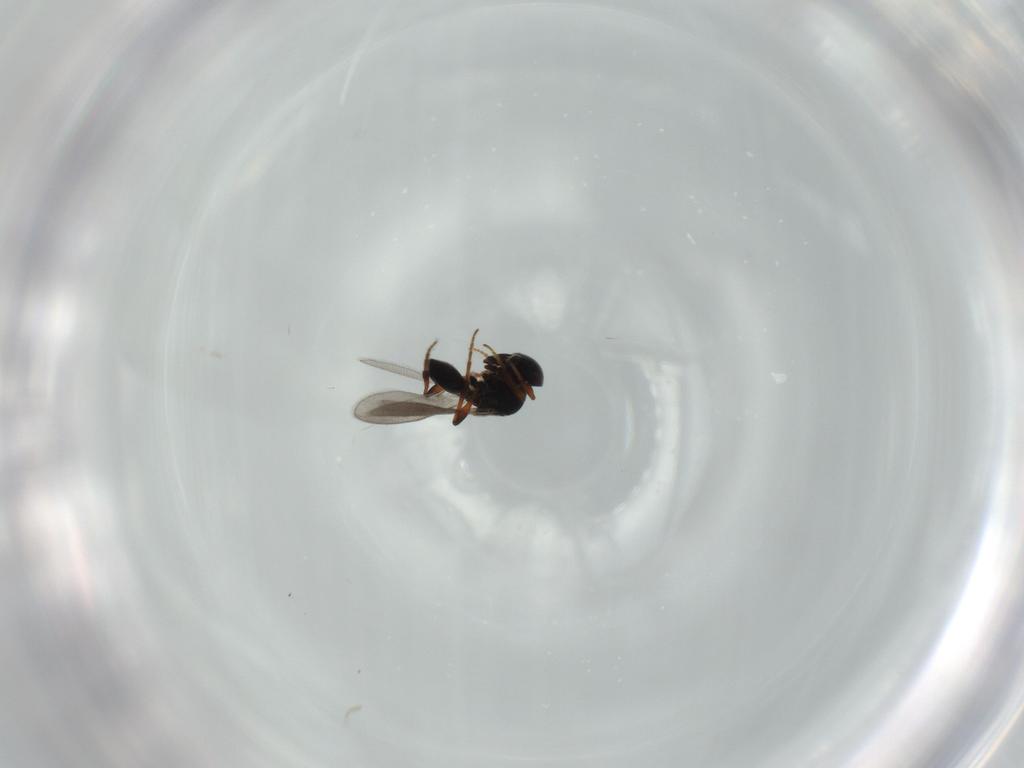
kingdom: Animalia
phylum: Arthropoda
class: Insecta
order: Hymenoptera
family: Platygastridae
